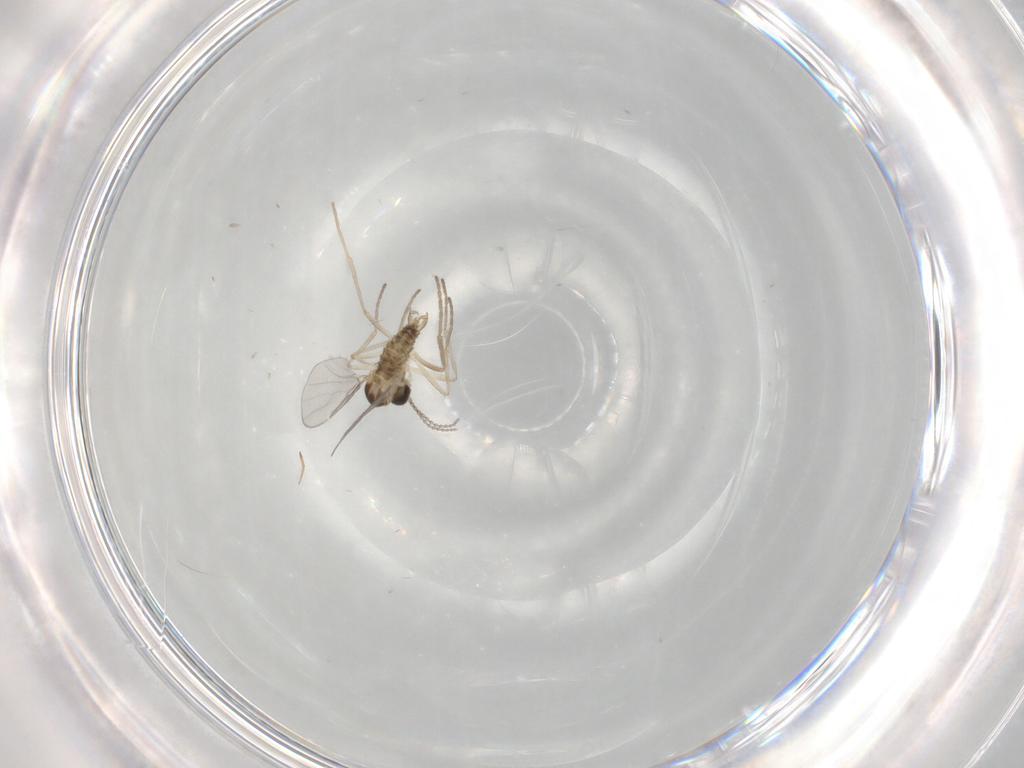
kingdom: Animalia
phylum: Arthropoda
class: Insecta
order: Diptera
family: Cecidomyiidae
